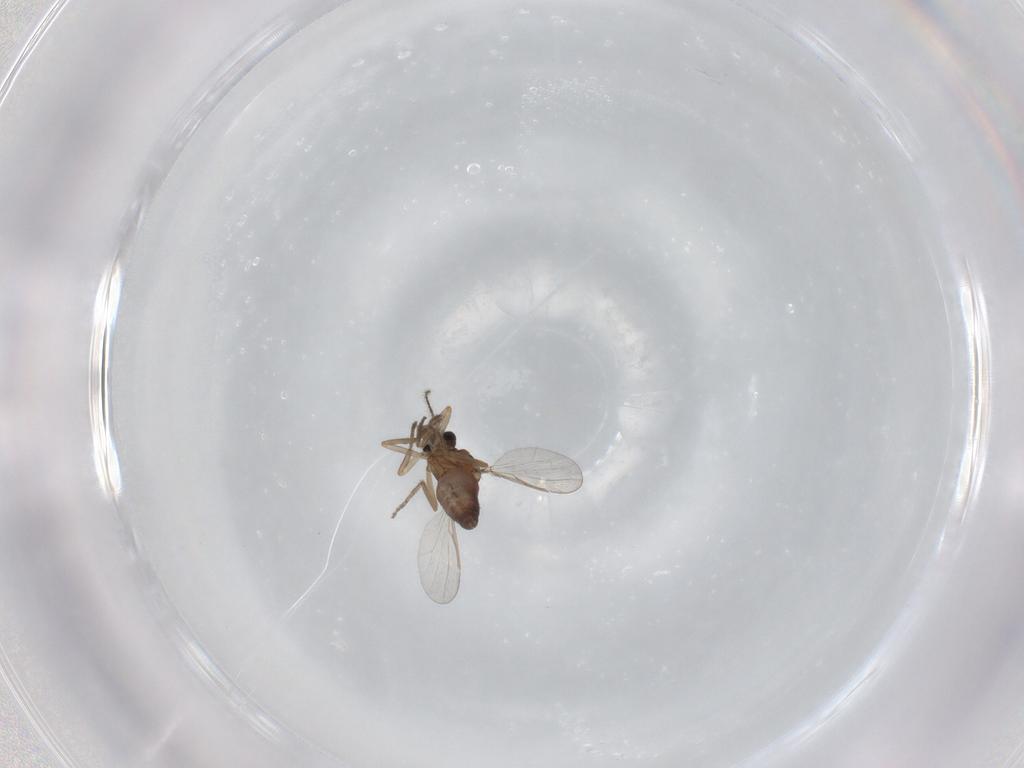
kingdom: Animalia
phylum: Arthropoda
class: Insecta
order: Diptera
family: Ceratopogonidae
